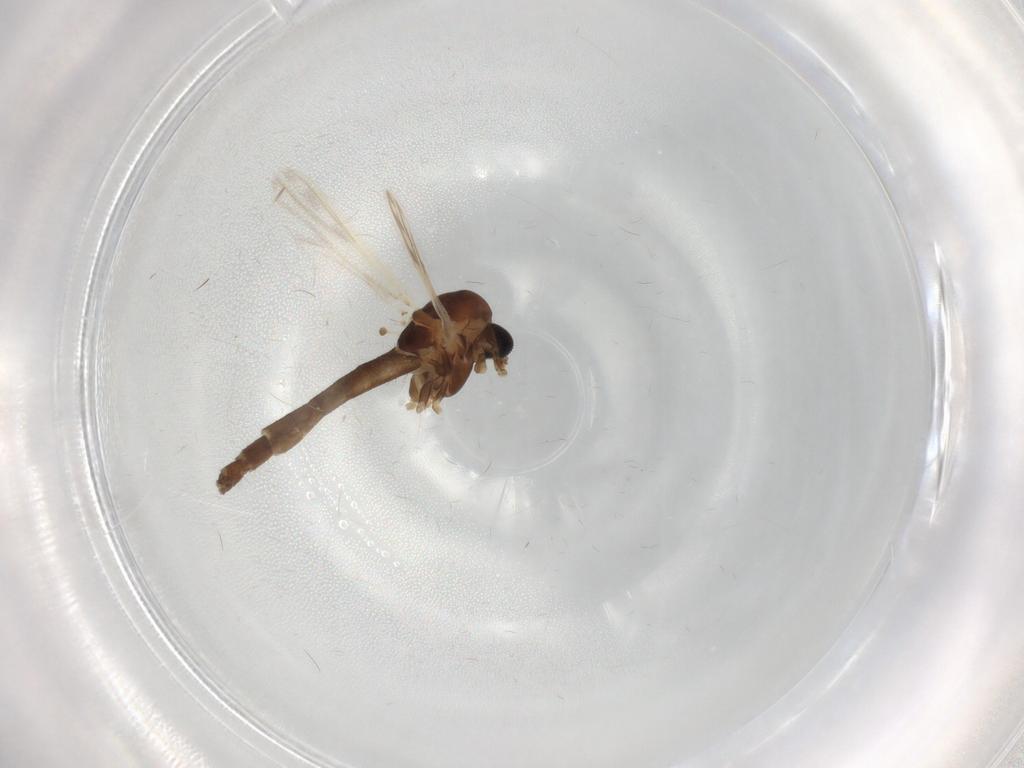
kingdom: Animalia
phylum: Arthropoda
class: Insecta
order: Diptera
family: Chironomidae
